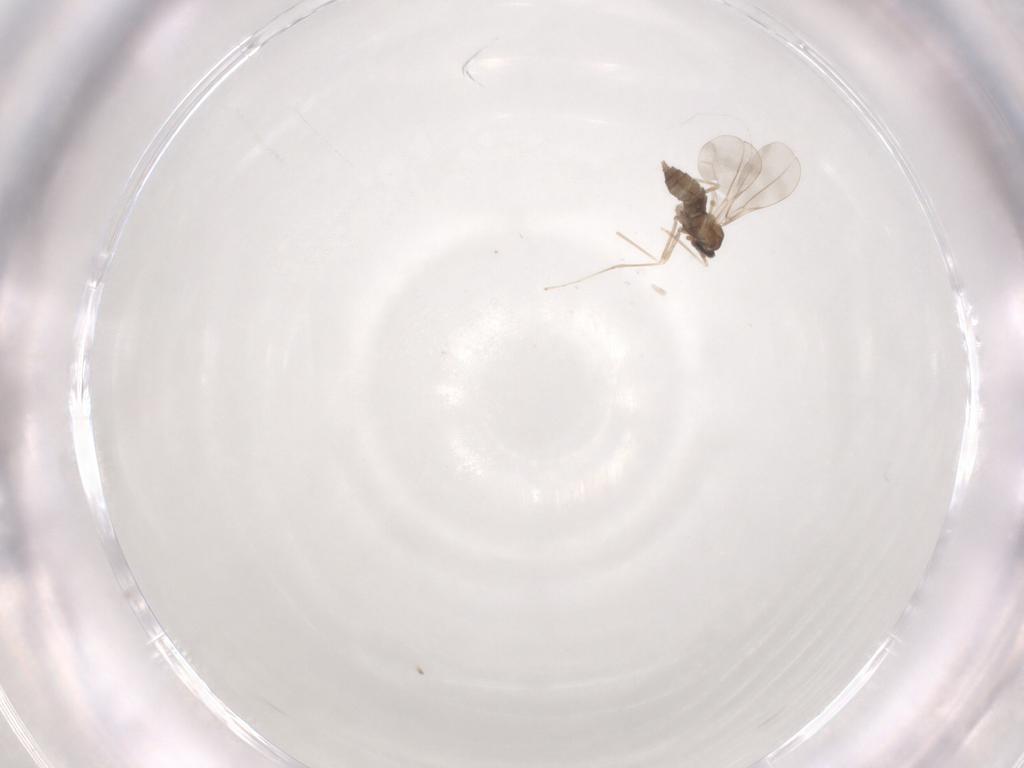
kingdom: Animalia
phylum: Arthropoda
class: Insecta
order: Diptera
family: Cecidomyiidae
